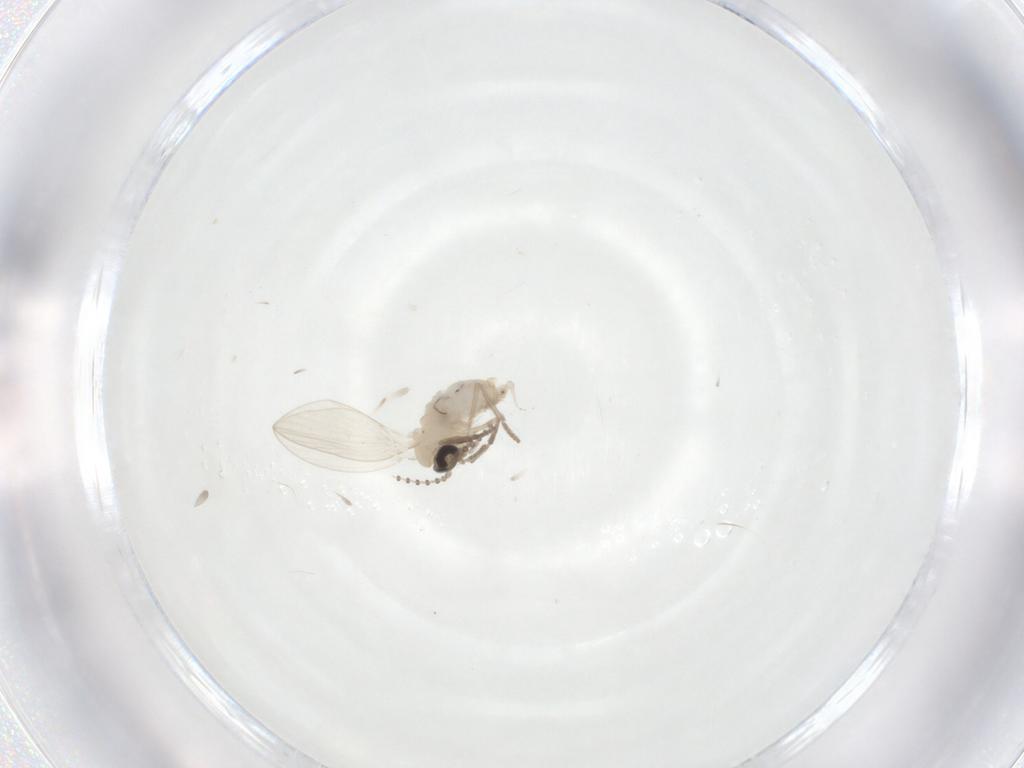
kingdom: Animalia
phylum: Arthropoda
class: Insecta
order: Diptera
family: Psychodidae
